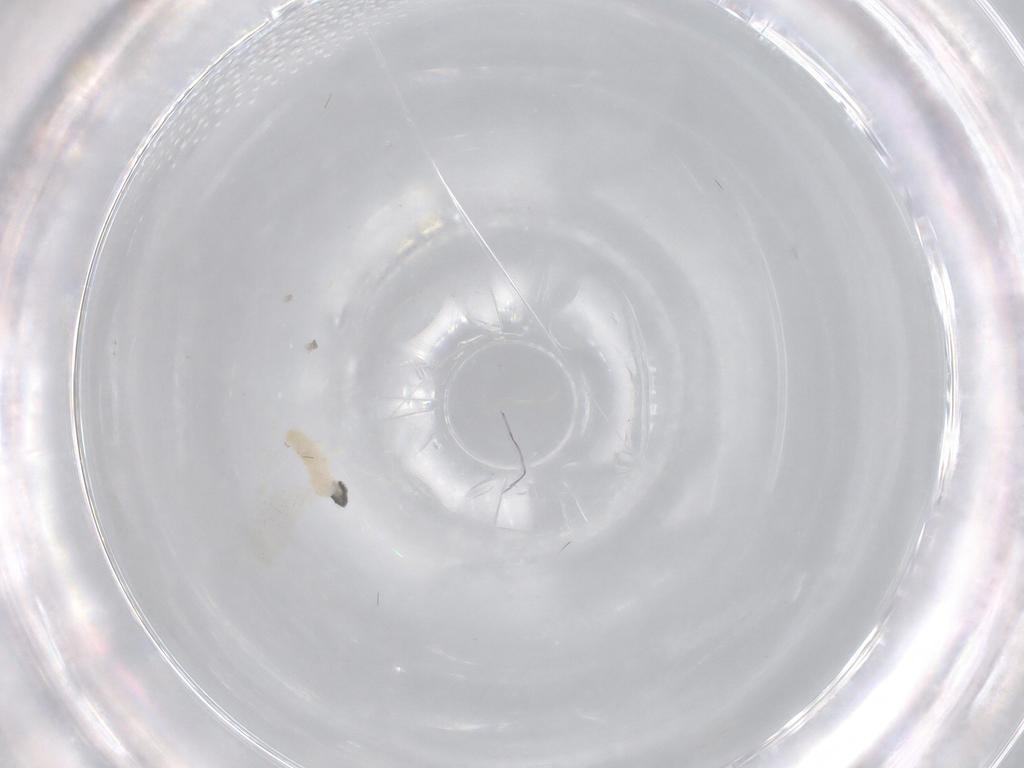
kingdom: Animalia
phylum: Arthropoda
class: Insecta
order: Diptera
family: Cecidomyiidae
